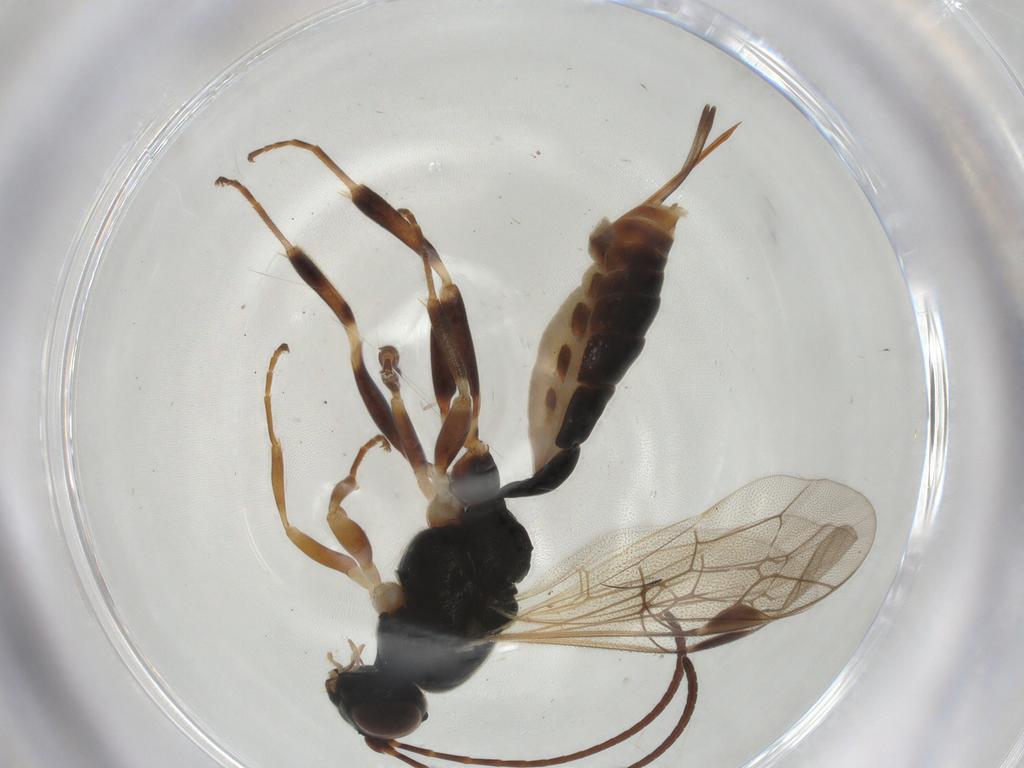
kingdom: Animalia
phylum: Arthropoda
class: Insecta
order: Hymenoptera
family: Ichneumonidae
